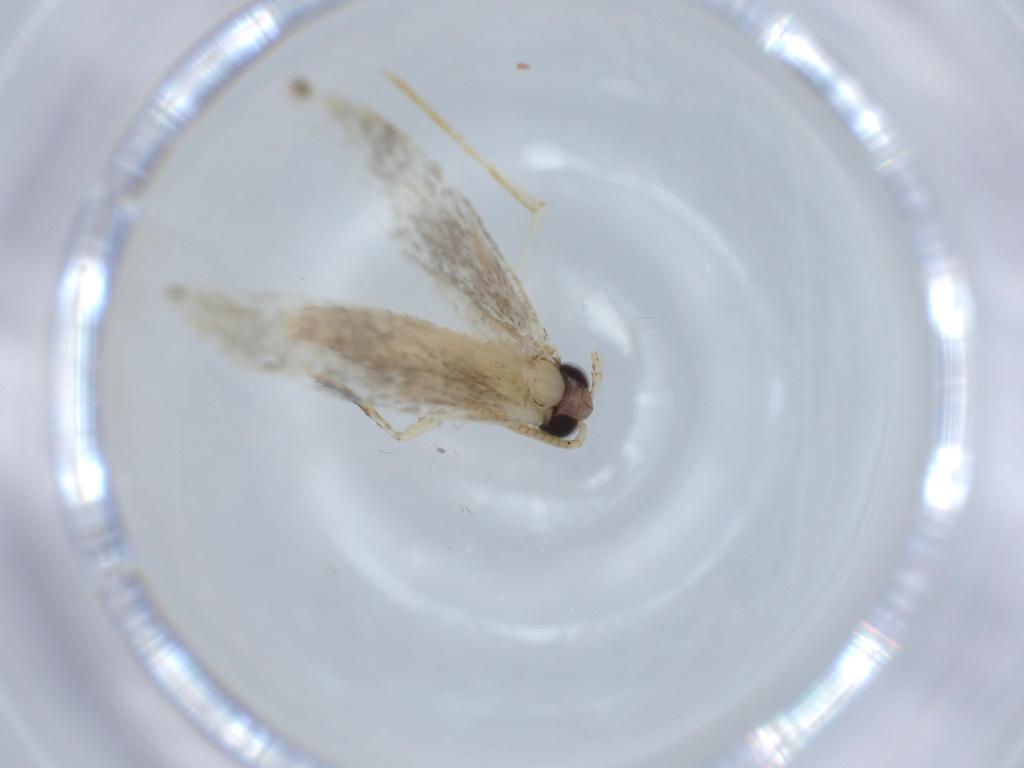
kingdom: Animalia
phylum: Arthropoda
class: Insecta
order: Lepidoptera
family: Tineidae
